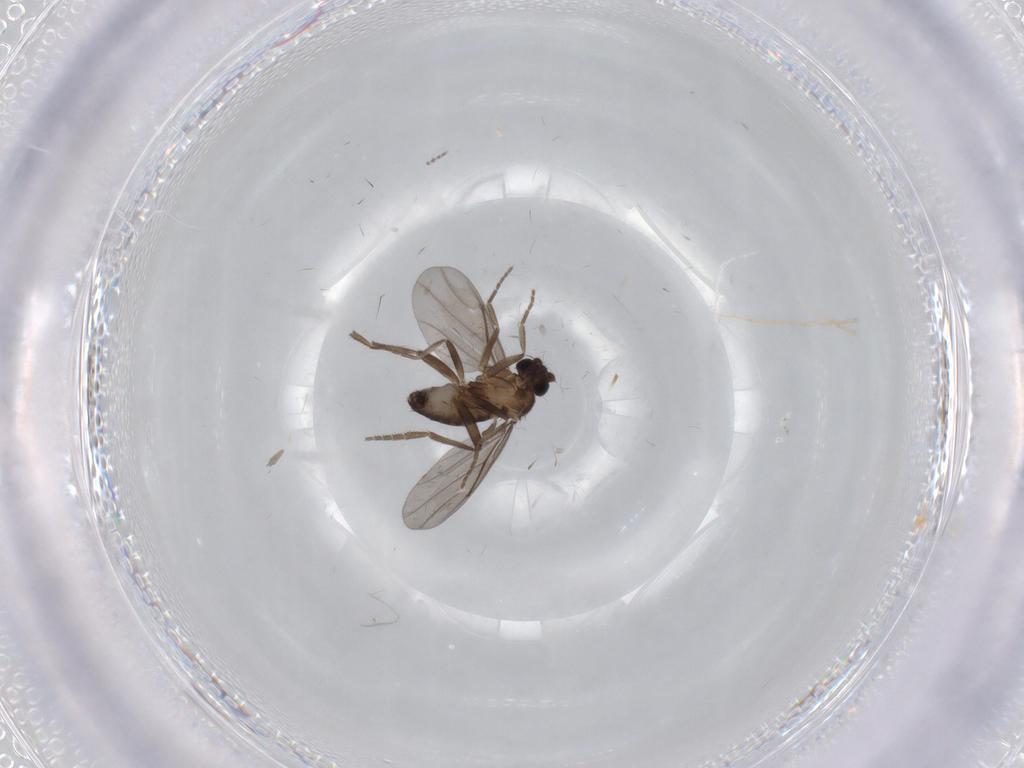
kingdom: Animalia
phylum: Arthropoda
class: Insecta
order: Diptera
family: Phoridae
